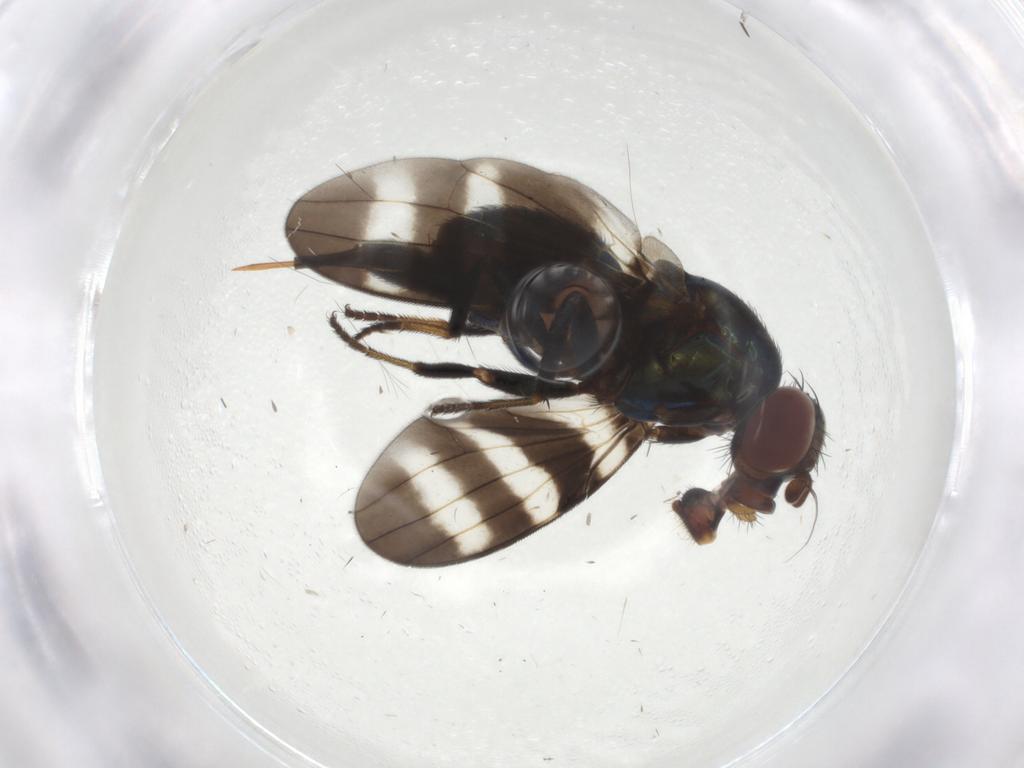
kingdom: Animalia
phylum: Arthropoda
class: Insecta
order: Diptera
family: Ulidiidae
